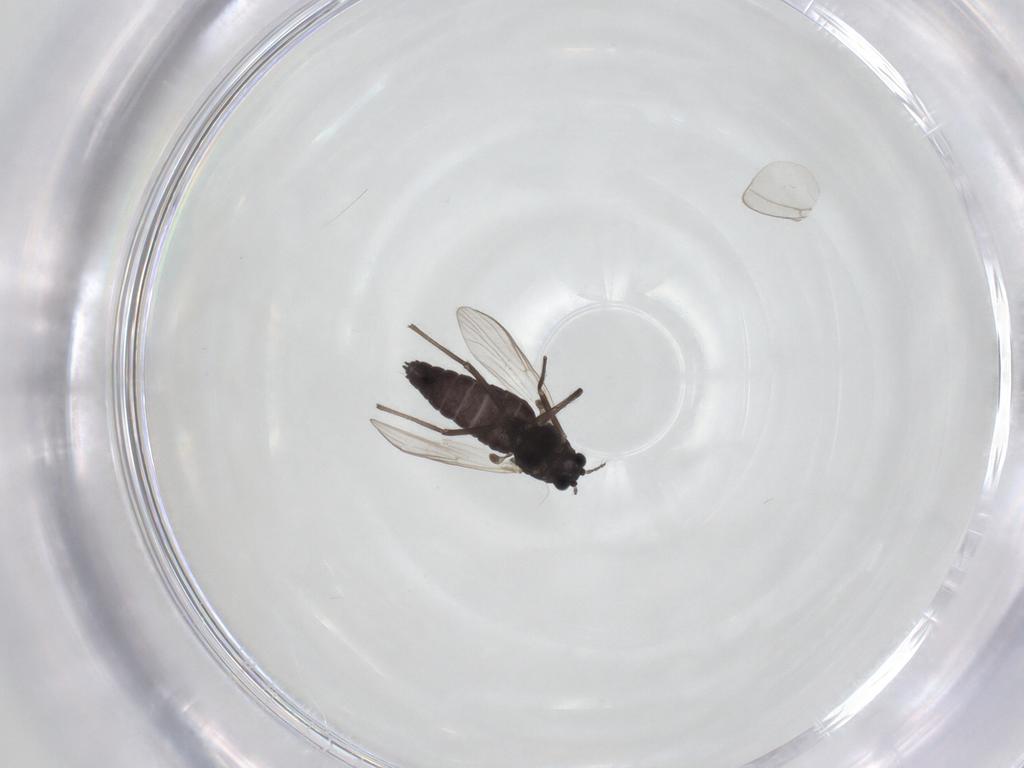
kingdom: Animalia
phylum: Arthropoda
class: Insecta
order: Diptera
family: Chironomidae
